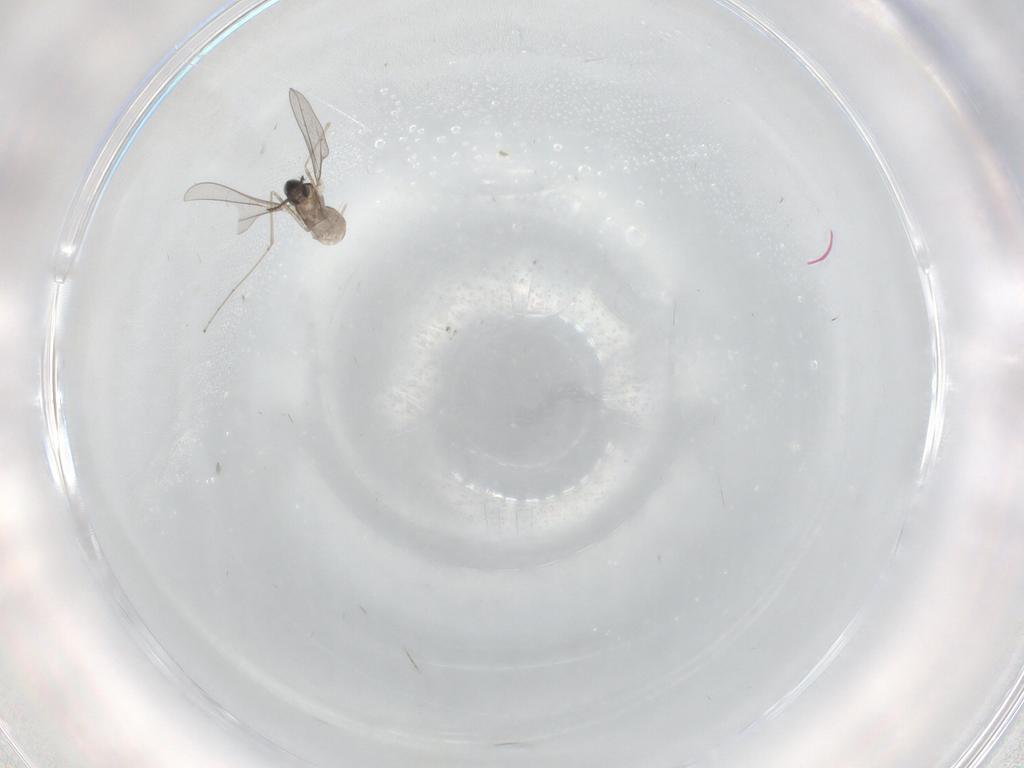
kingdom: Animalia
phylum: Arthropoda
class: Insecta
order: Diptera
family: Cecidomyiidae
